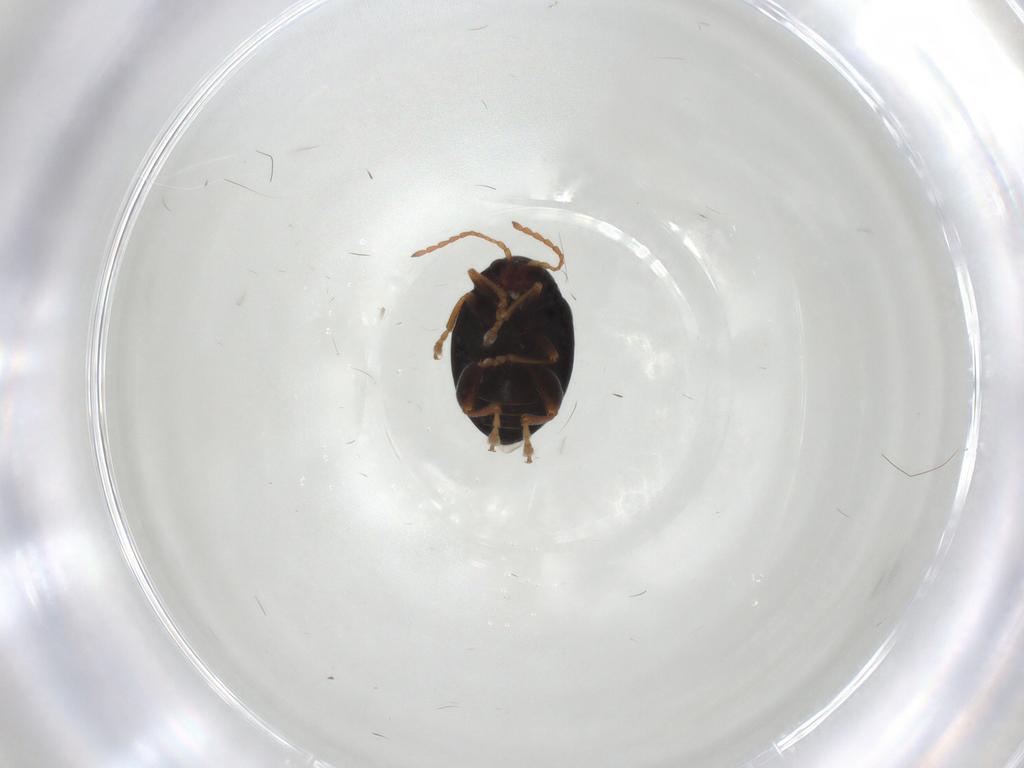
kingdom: Animalia
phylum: Arthropoda
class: Insecta
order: Coleoptera
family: Chrysomelidae
